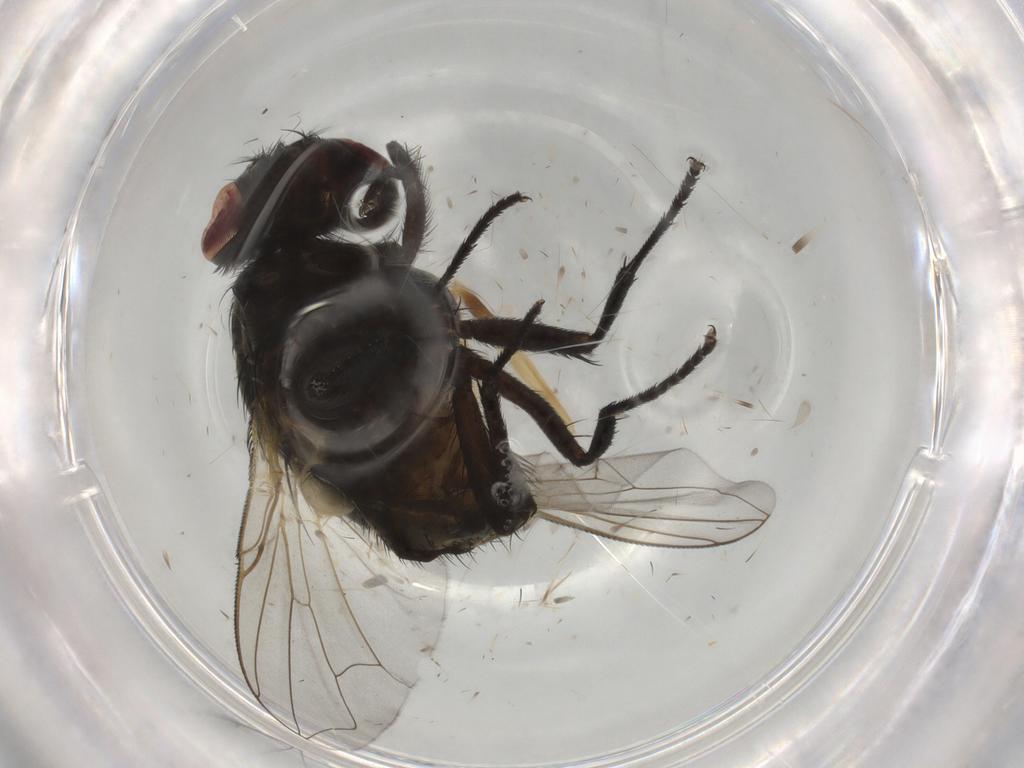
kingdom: Animalia
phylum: Arthropoda
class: Insecta
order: Diptera
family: Muscidae
